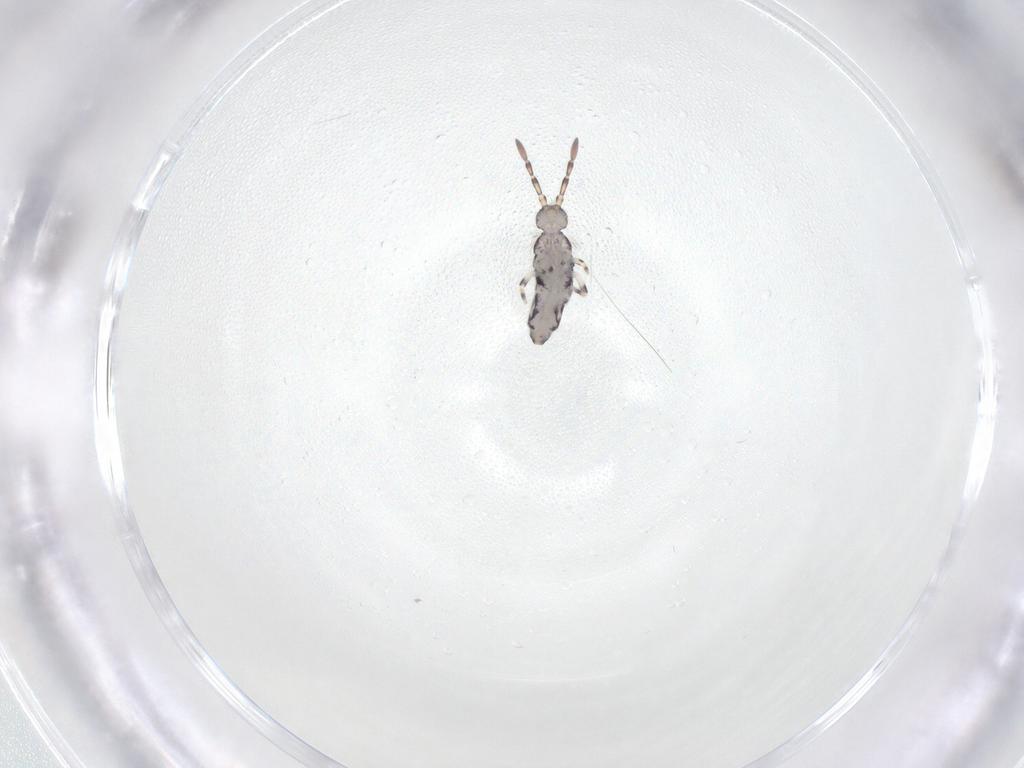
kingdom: Animalia
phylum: Arthropoda
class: Collembola
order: Entomobryomorpha
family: Entomobryidae
